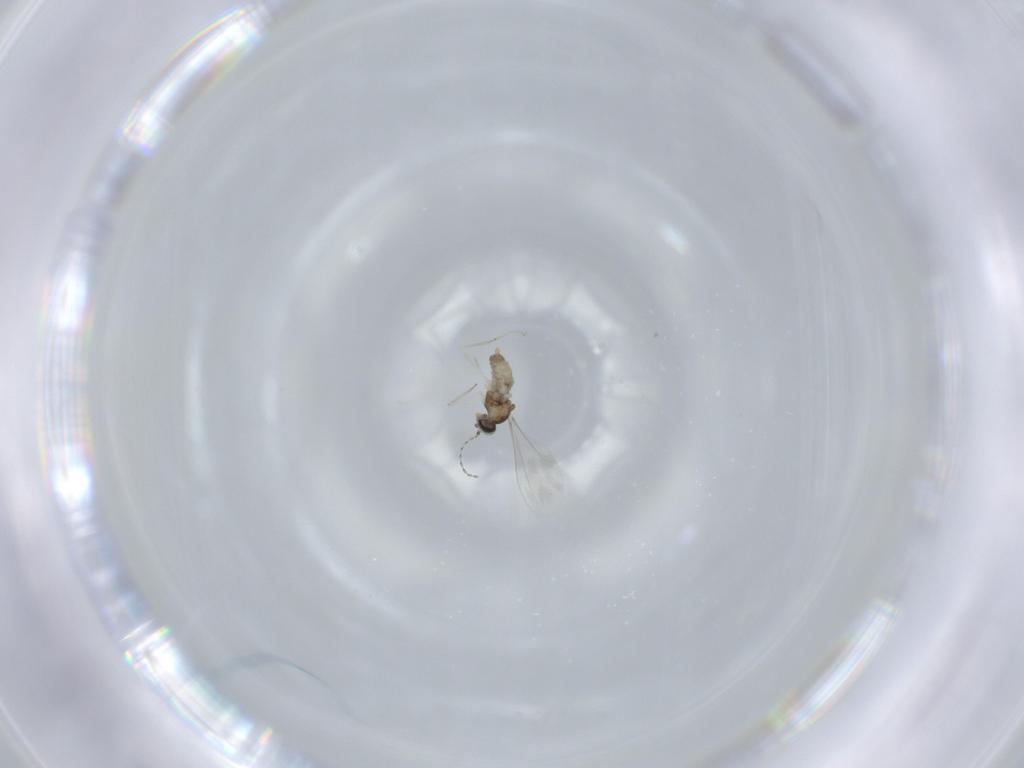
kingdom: Animalia
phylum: Arthropoda
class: Insecta
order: Diptera
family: Cecidomyiidae
